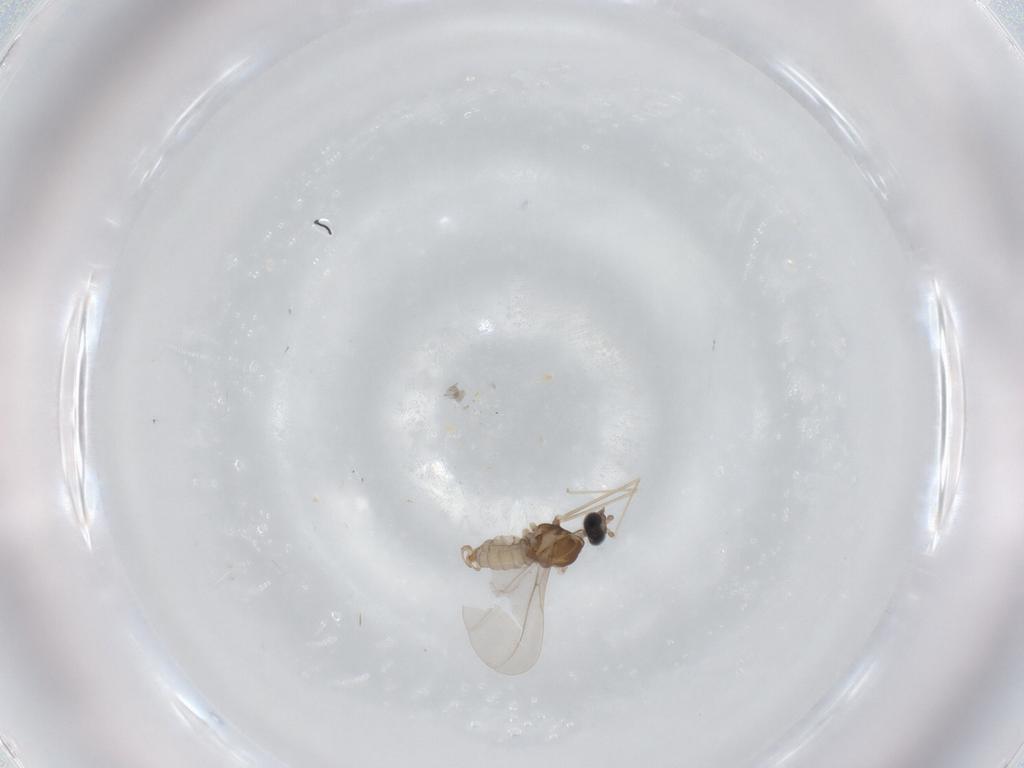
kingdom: Animalia
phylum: Arthropoda
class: Insecta
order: Diptera
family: Cecidomyiidae
